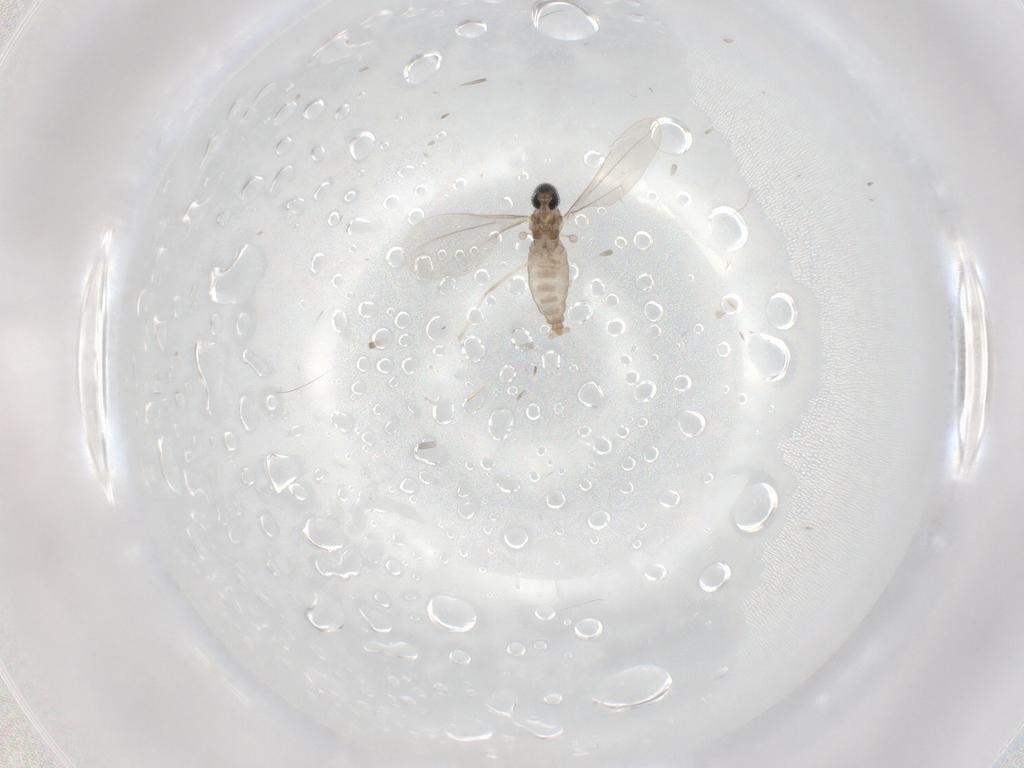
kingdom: Animalia
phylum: Arthropoda
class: Insecta
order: Diptera
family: Cecidomyiidae
